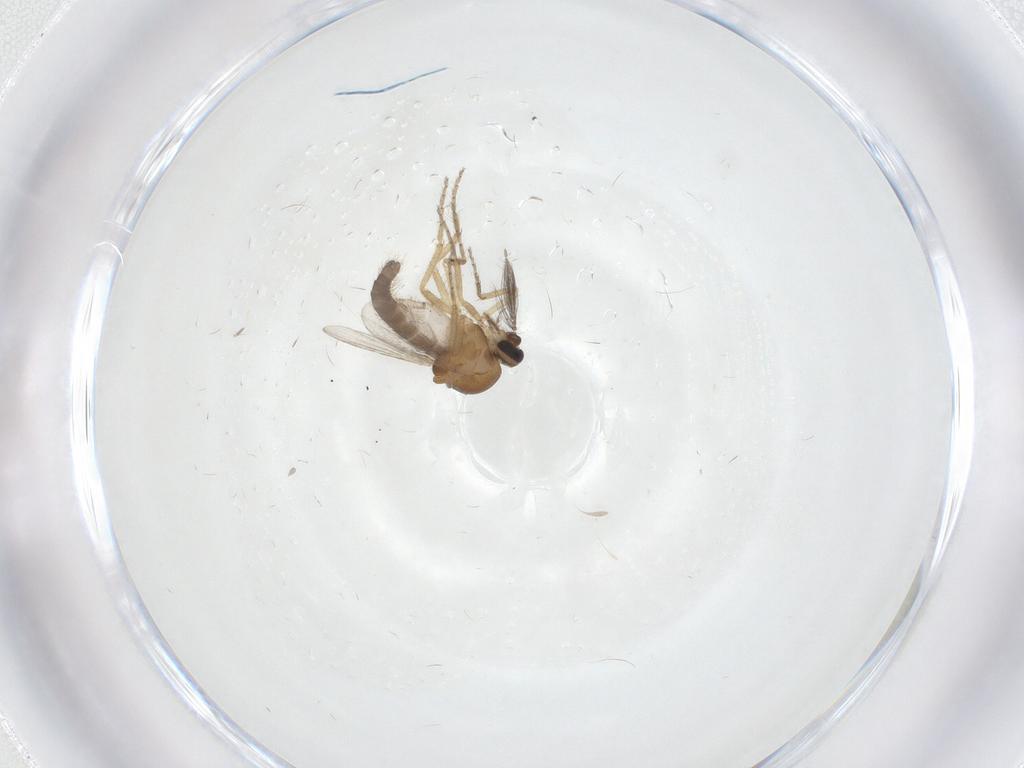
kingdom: Animalia
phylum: Arthropoda
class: Insecta
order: Diptera
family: Ceratopogonidae
